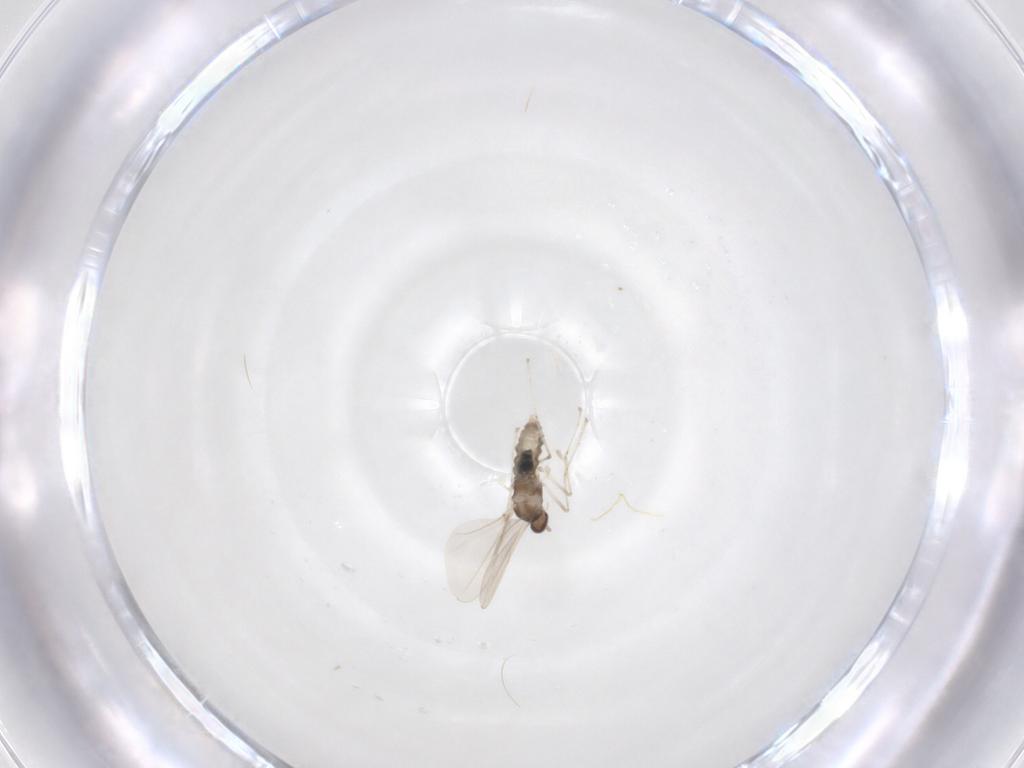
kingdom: Animalia
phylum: Arthropoda
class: Insecta
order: Diptera
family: Cecidomyiidae
